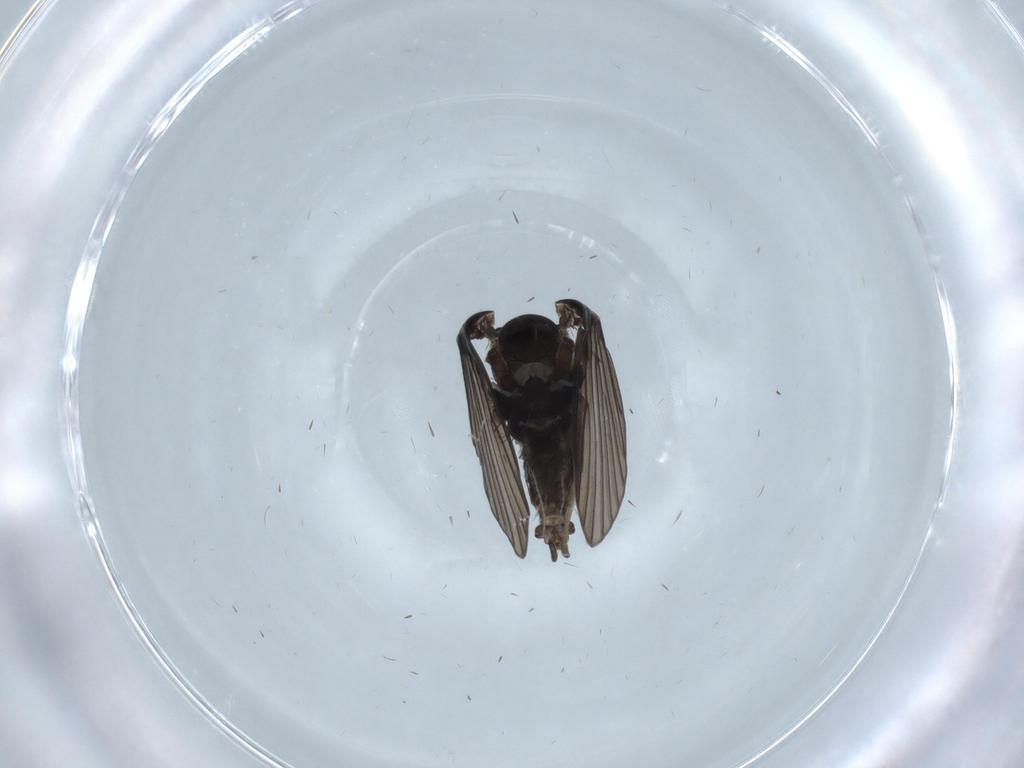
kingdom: Animalia
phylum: Arthropoda
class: Insecta
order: Diptera
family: Psychodidae
